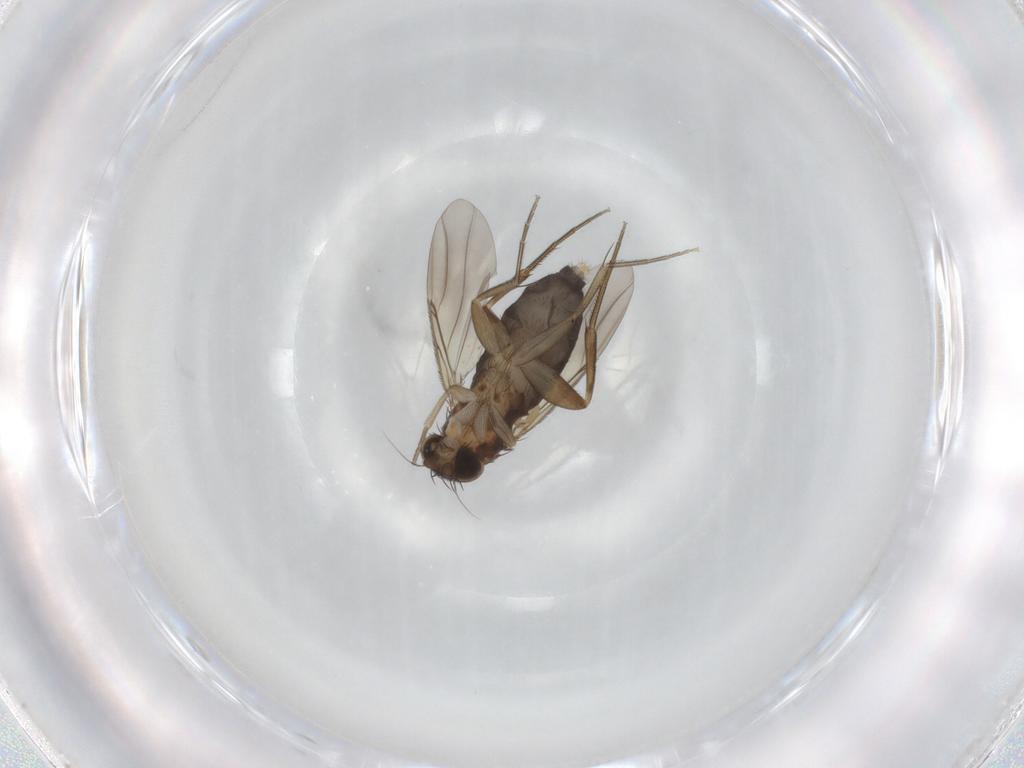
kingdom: Animalia
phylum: Arthropoda
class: Insecta
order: Diptera
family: Phoridae
